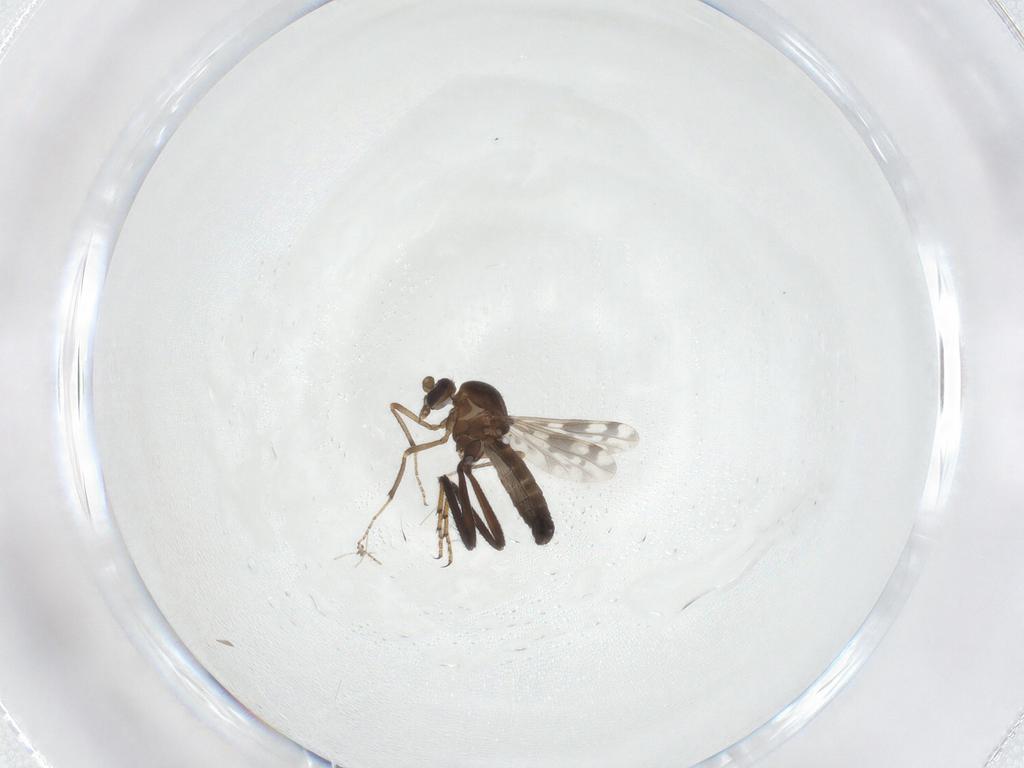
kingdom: Animalia
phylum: Arthropoda
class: Insecta
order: Diptera
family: Ceratopogonidae
